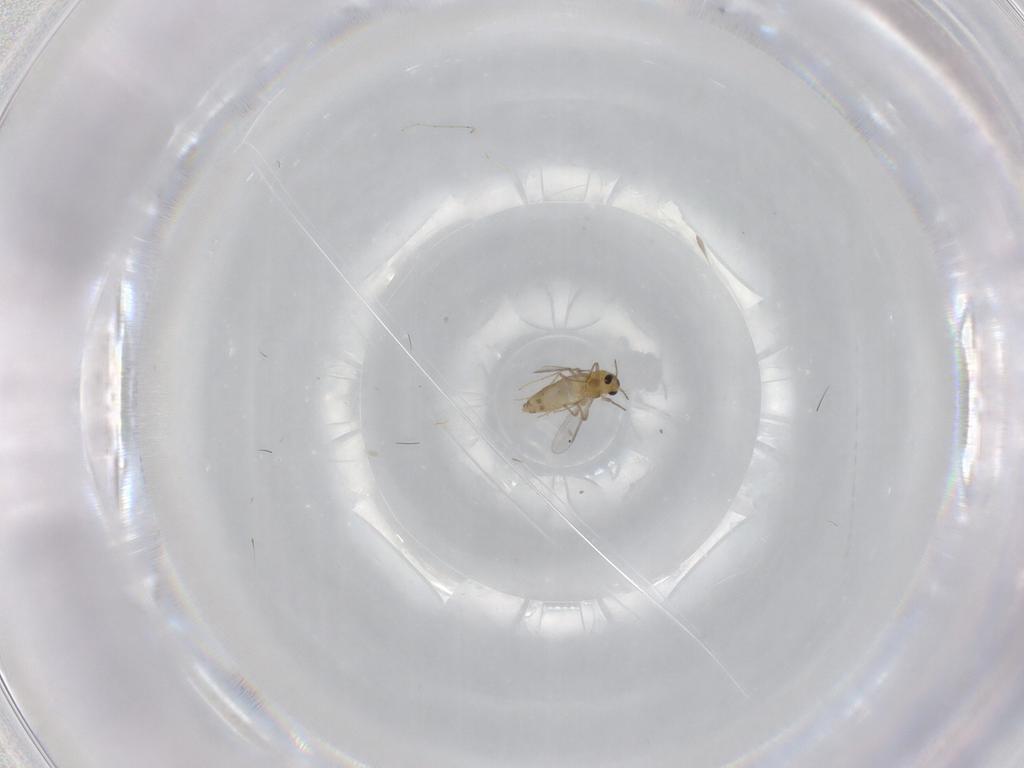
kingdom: Animalia
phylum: Arthropoda
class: Insecta
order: Diptera
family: Chironomidae
